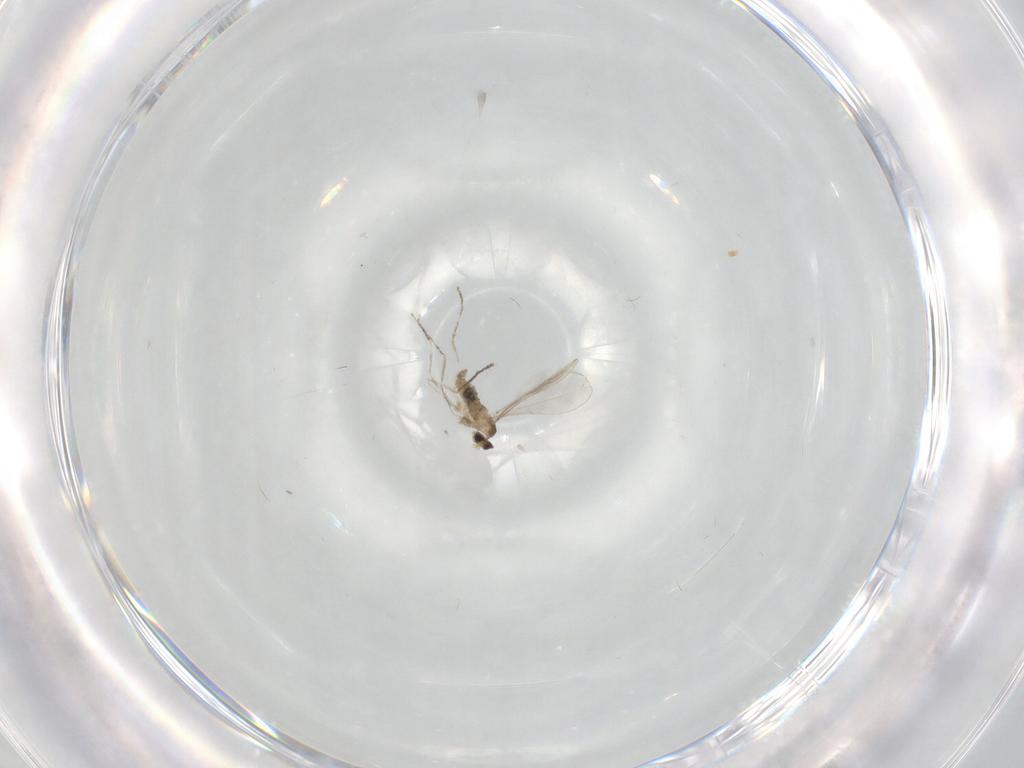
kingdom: Animalia
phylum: Arthropoda
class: Insecta
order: Diptera
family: Cecidomyiidae
